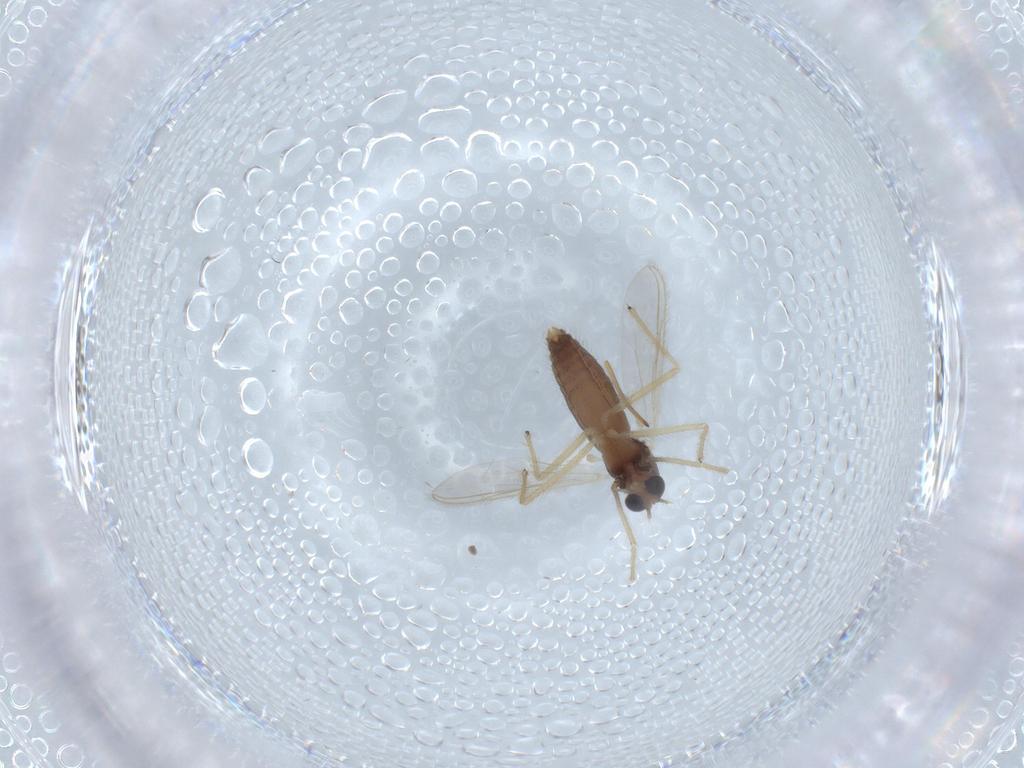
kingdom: Animalia
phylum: Arthropoda
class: Insecta
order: Diptera
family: Chironomidae
